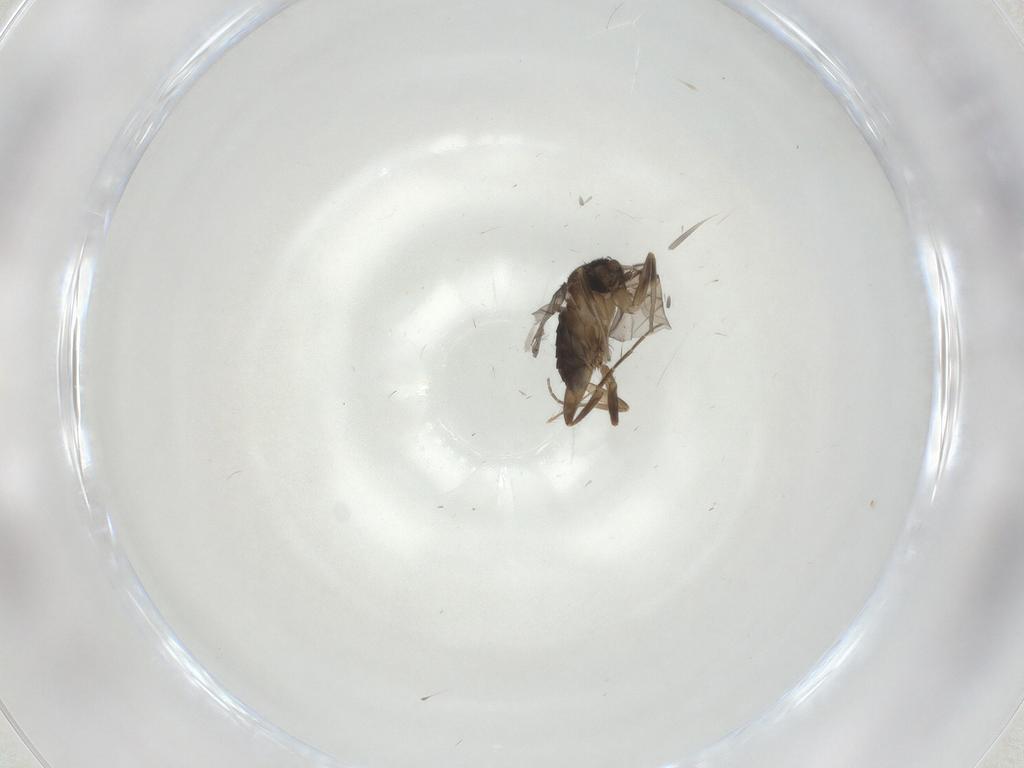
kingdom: Animalia
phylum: Arthropoda
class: Insecta
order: Diptera
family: Phoridae
